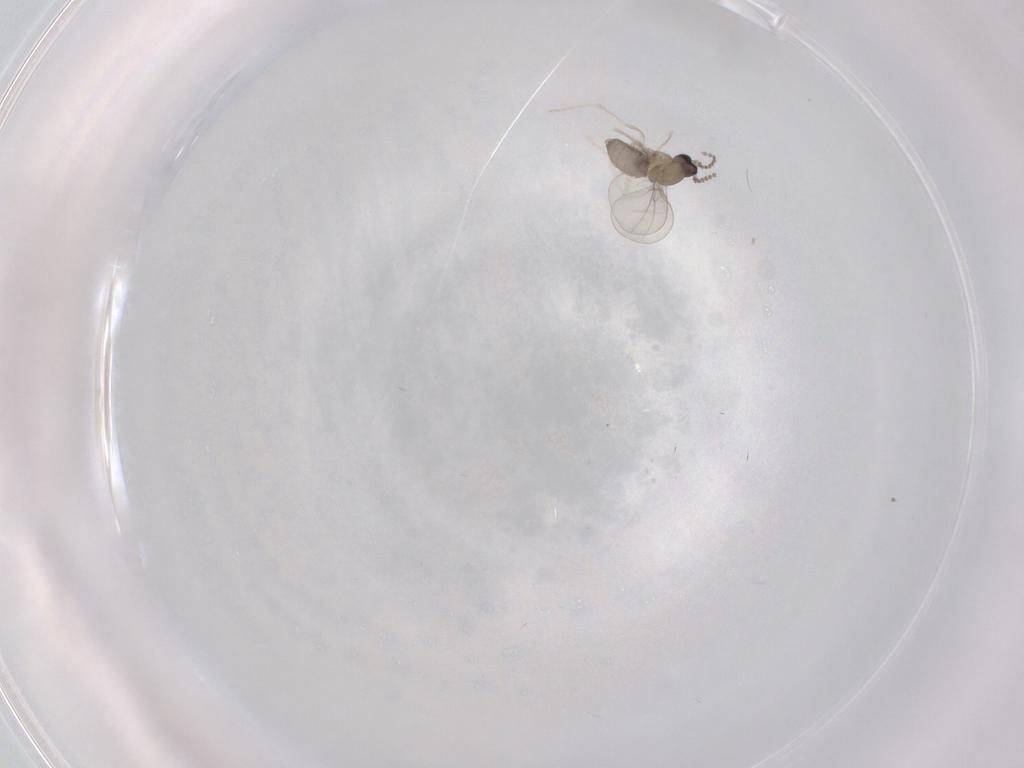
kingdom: Animalia
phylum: Arthropoda
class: Insecta
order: Diptera
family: Cecidomyiidae
